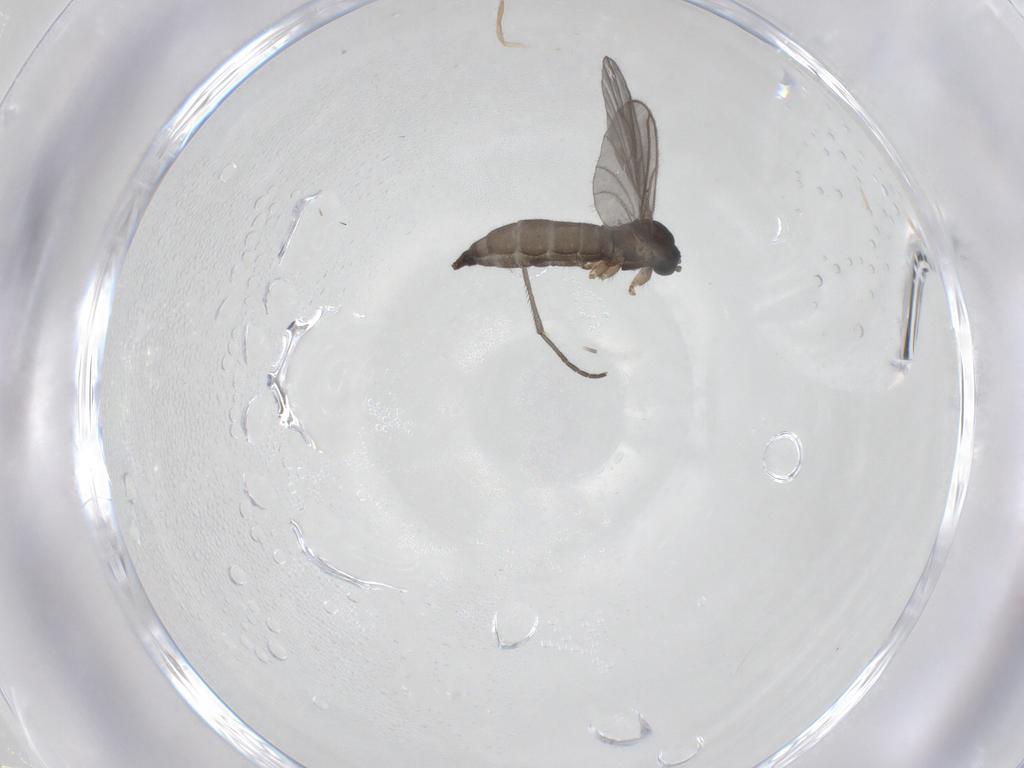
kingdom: Animalia
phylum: Arthropoda
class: Insecta
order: Diptera
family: Sciaridae
